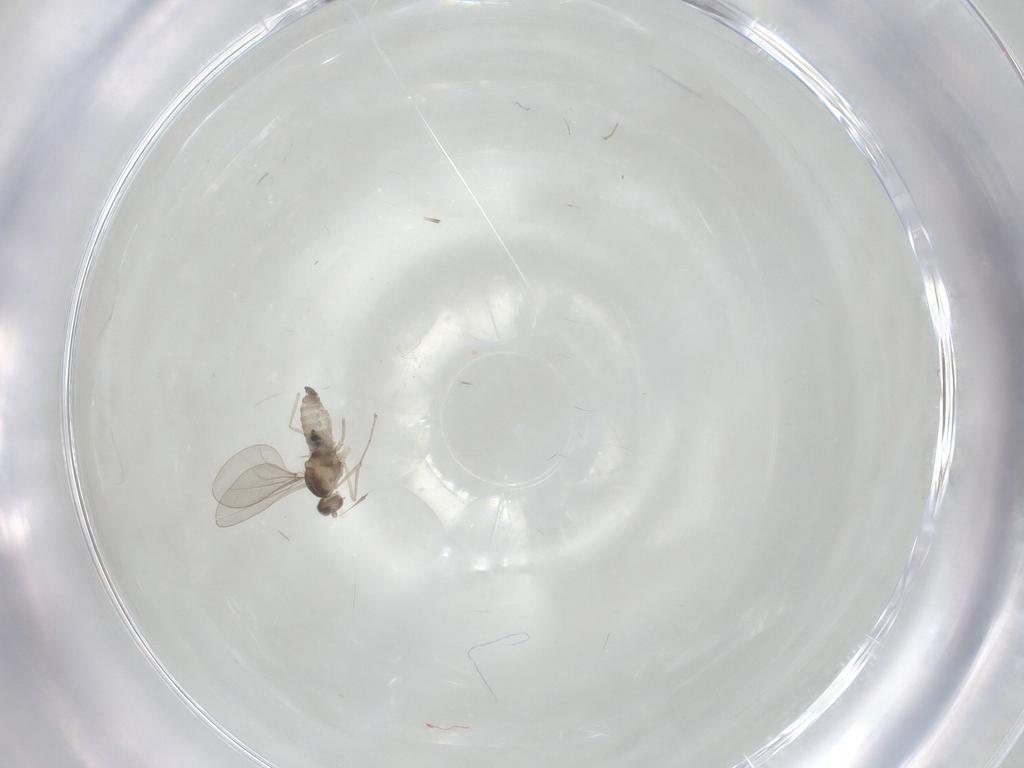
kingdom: Animalia
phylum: Arthropoda
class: Insecta
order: Diptera
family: Cecidomyiidae
